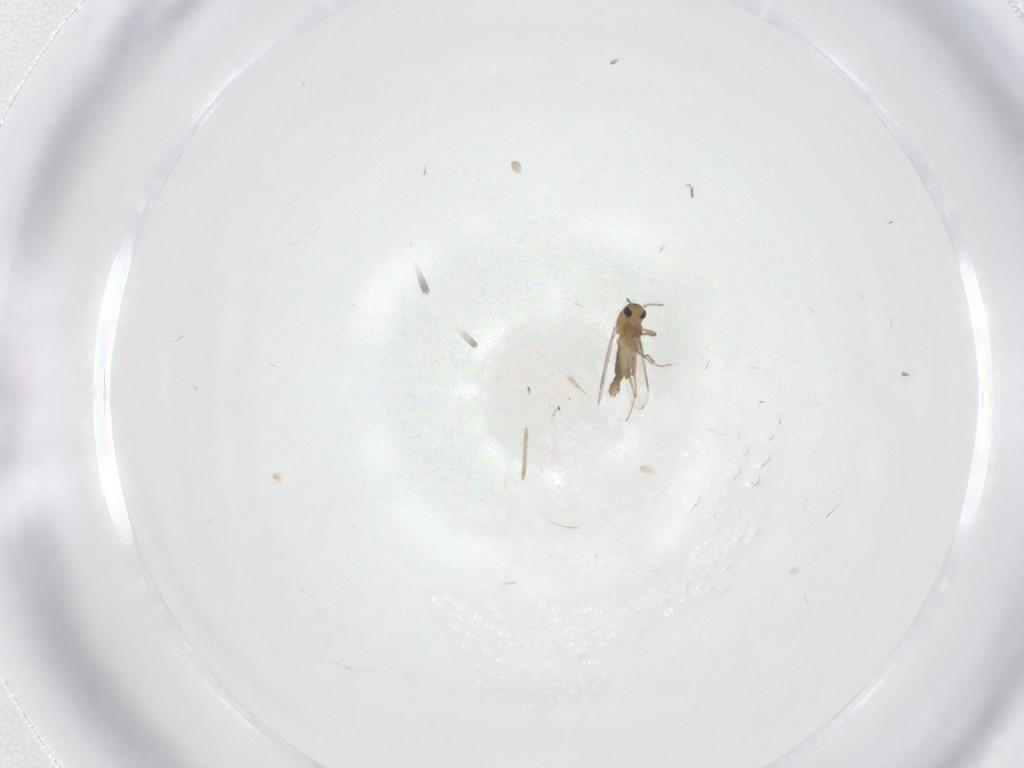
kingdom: Animalia
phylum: Arthropoda
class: Insecta
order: Diptera
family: Chironomidae
